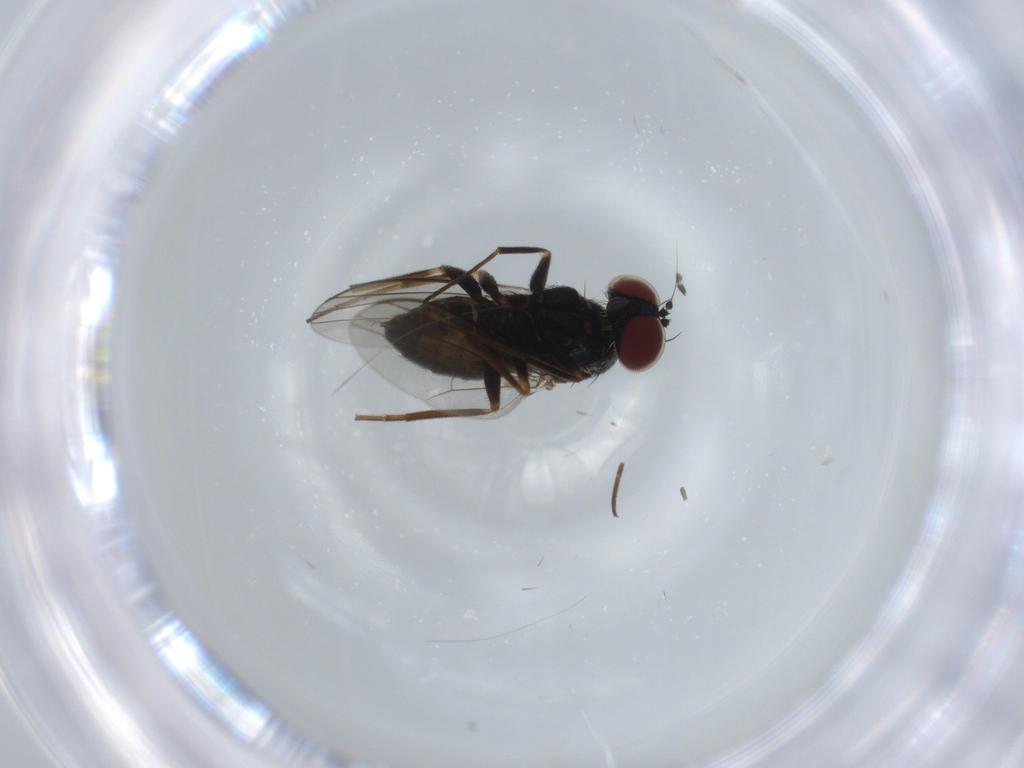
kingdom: Animalia
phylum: Arthropoda
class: Insecta
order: Diptera
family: Dolichopodidae
